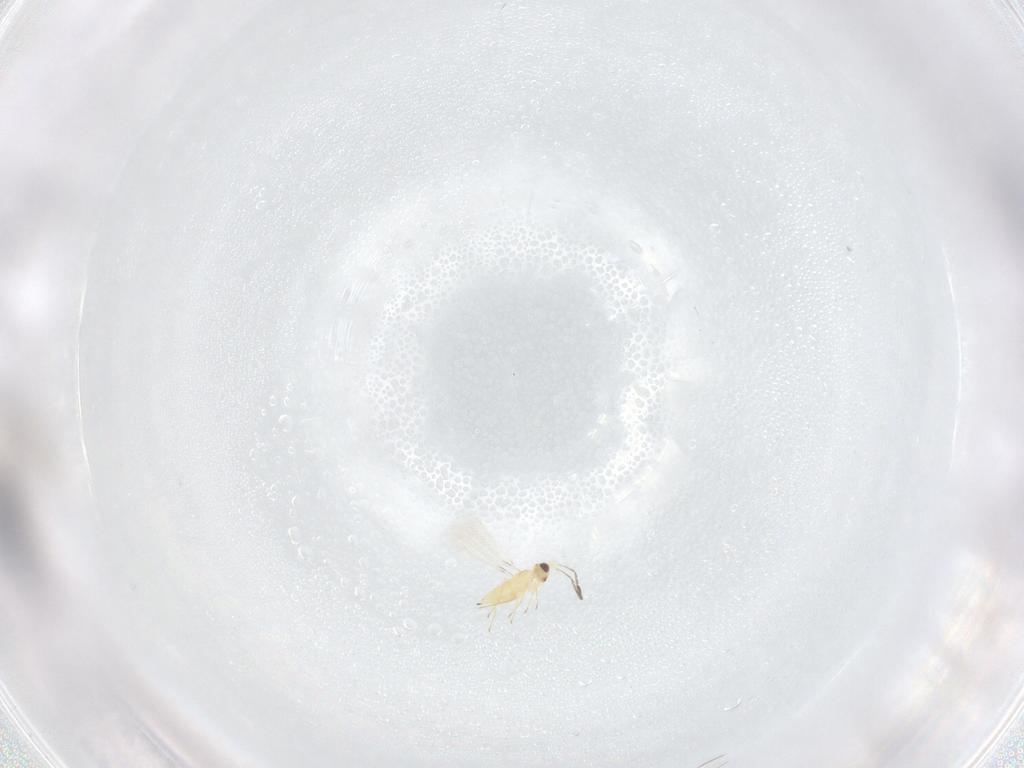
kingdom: Animalia
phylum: Arthropoda
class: Insecta
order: Hymenoptera
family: Mymaridae
